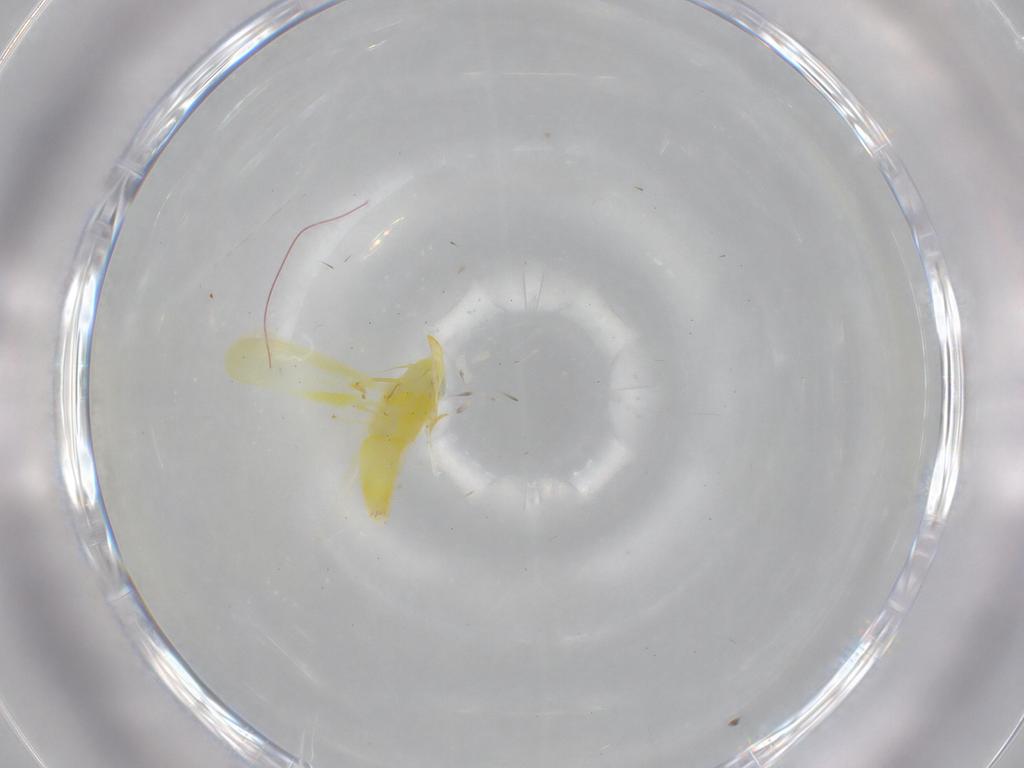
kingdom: Animalia
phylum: Arthropoda
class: Insecta
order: Hemiptera
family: Cicadellidae
